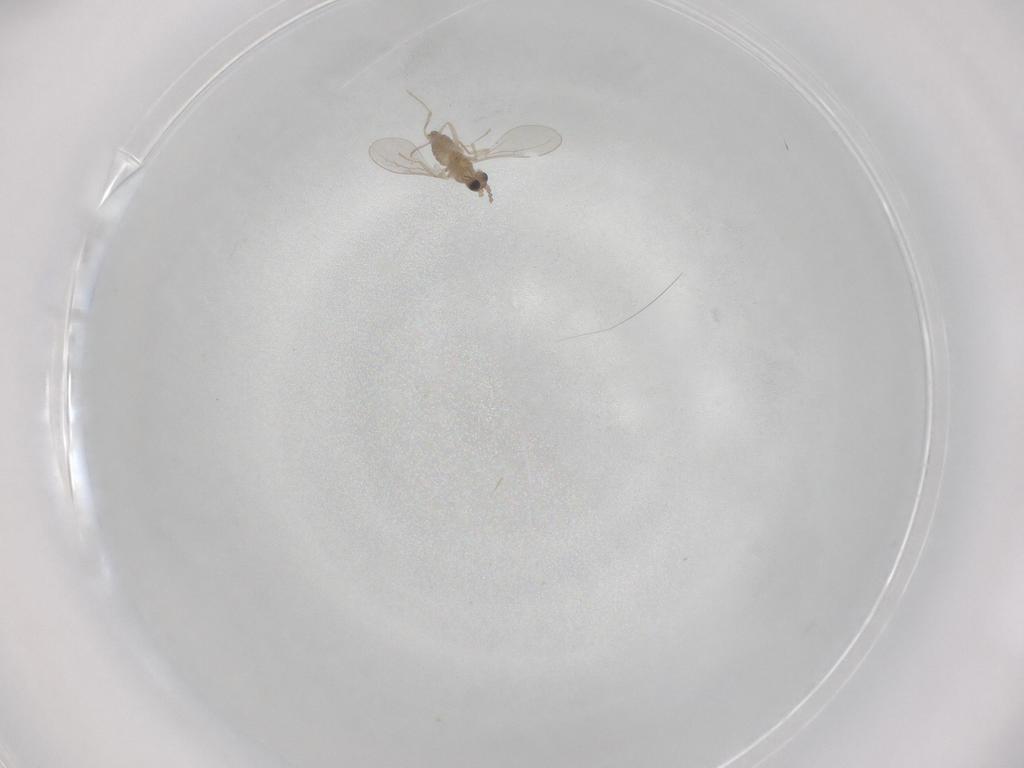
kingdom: Animalia
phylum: Arthropoda
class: Insecta
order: Diptera
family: Cecidomyiidae
